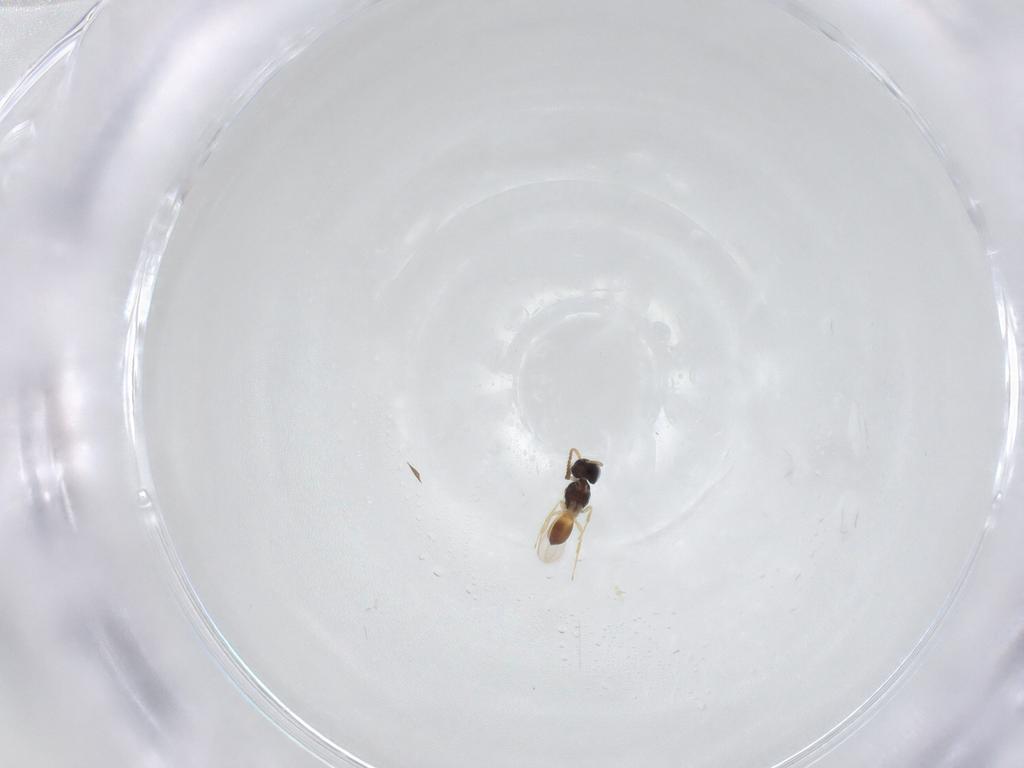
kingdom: Animalia
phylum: Arthropoda
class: Insecta
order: Hymenoptera
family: Scelionidae
